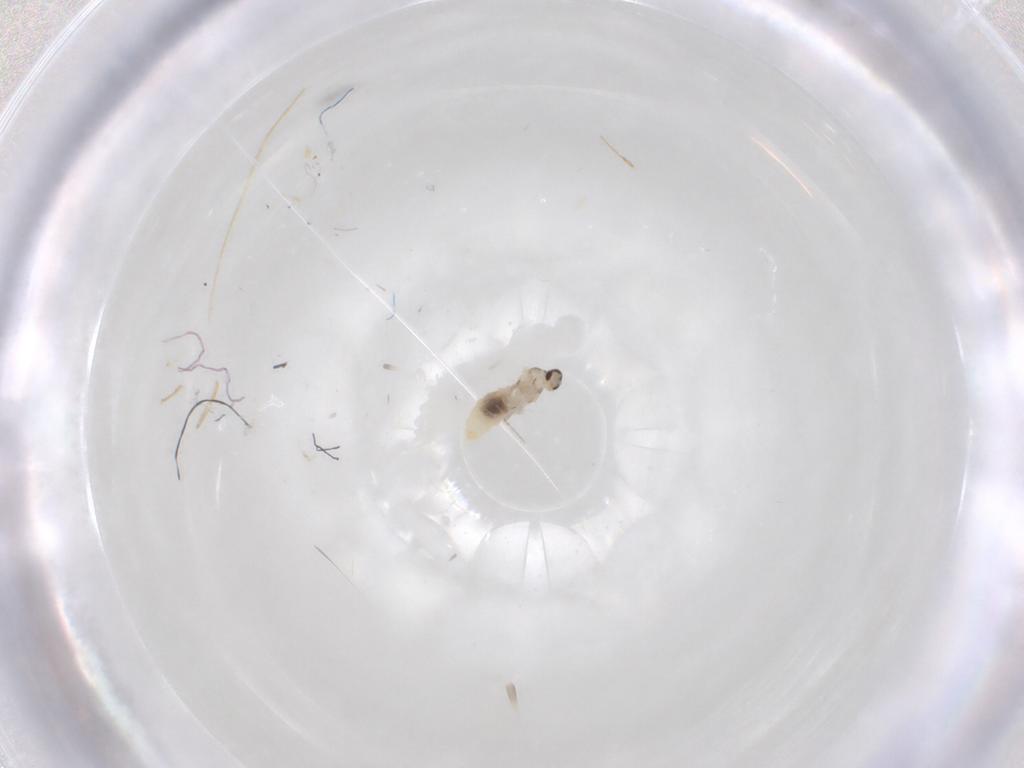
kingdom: Animalia
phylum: Arthropoda
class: Insecta
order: Diptera
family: Cecidomyiidae
